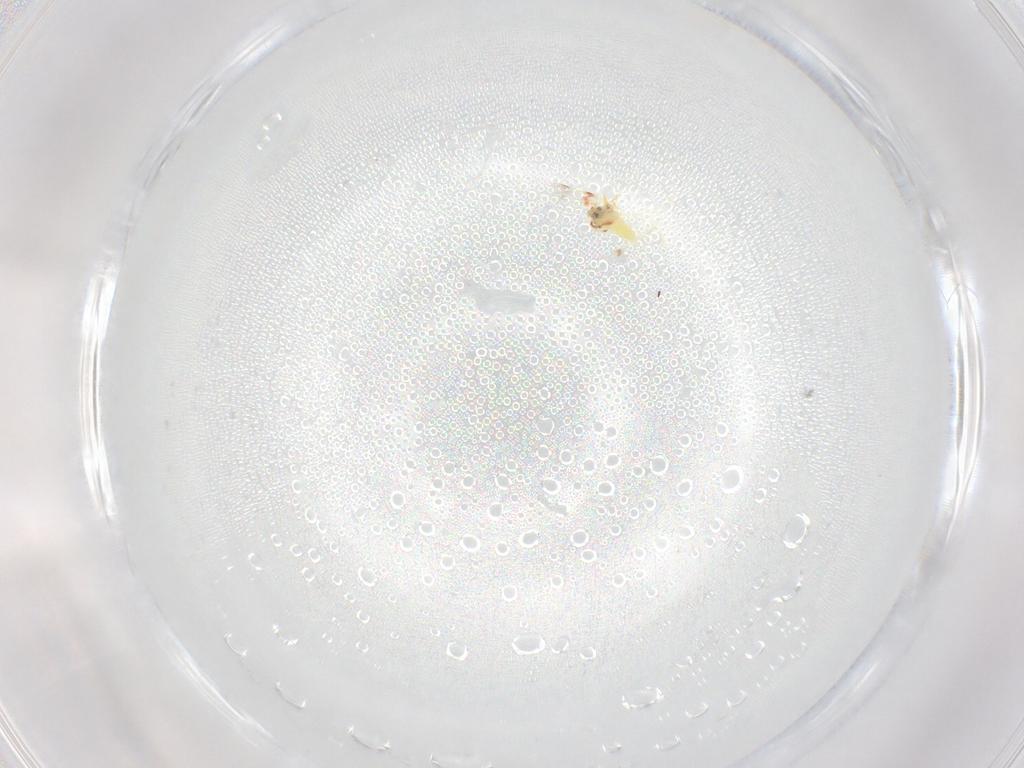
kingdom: Animalia
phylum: Arthropoda
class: Insecta
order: Diptera
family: Cecidomyiidae
